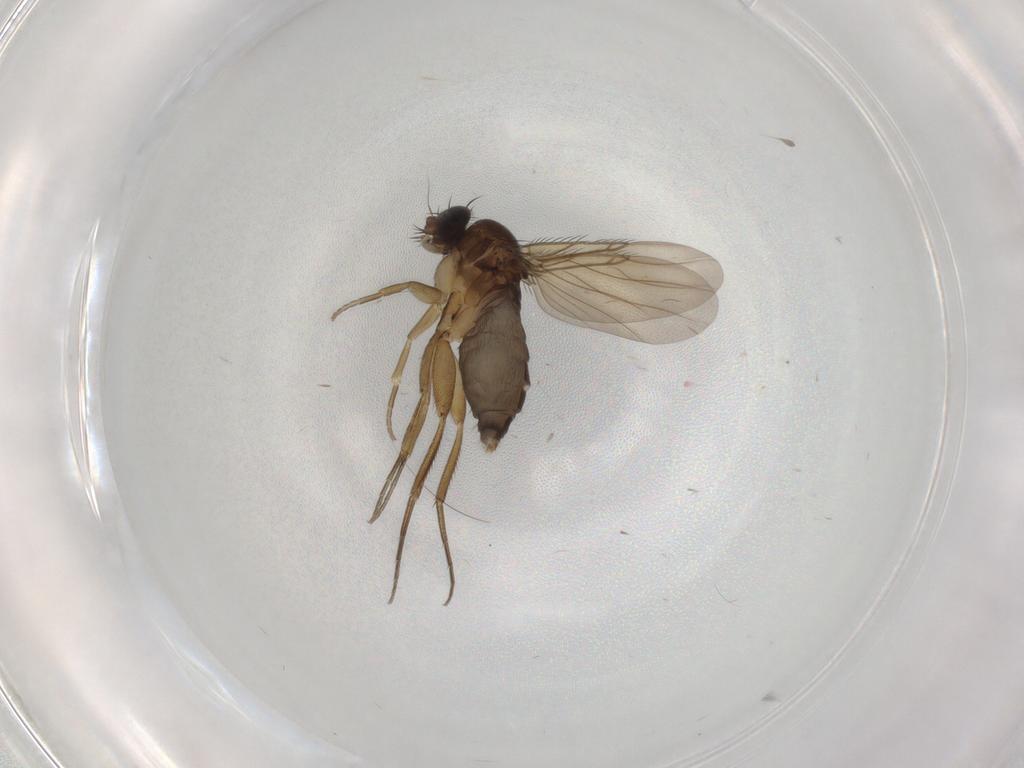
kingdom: Animalia
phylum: Arthropoda
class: Insecta
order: Diptera
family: Phoridae
